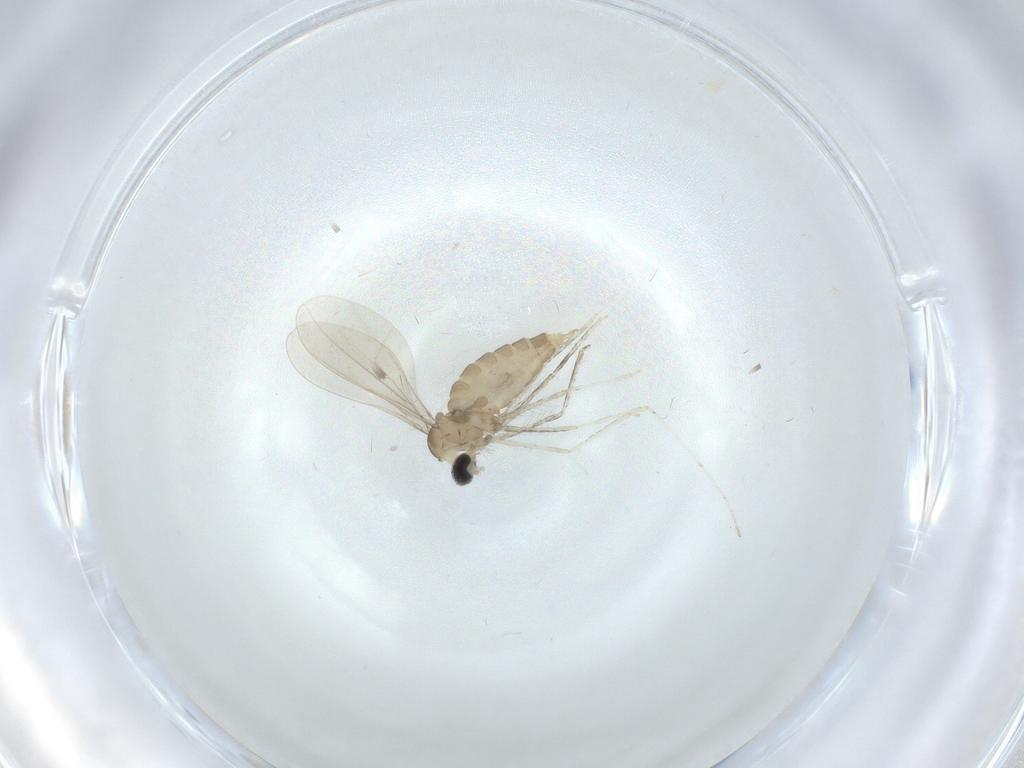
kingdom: Animalia
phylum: Arthropoda
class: Insecta
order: Diptera
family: Cecidomyiidae
